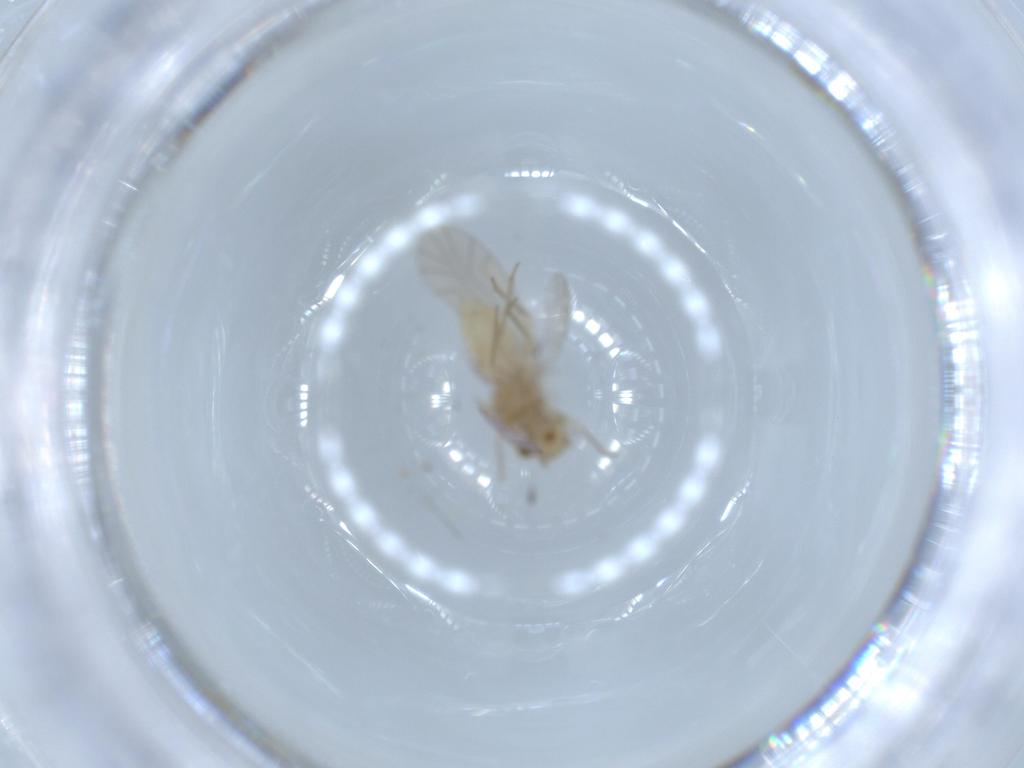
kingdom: Animalia
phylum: Arthropoda
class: Insecta
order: Psocodea
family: Lachesillidae
